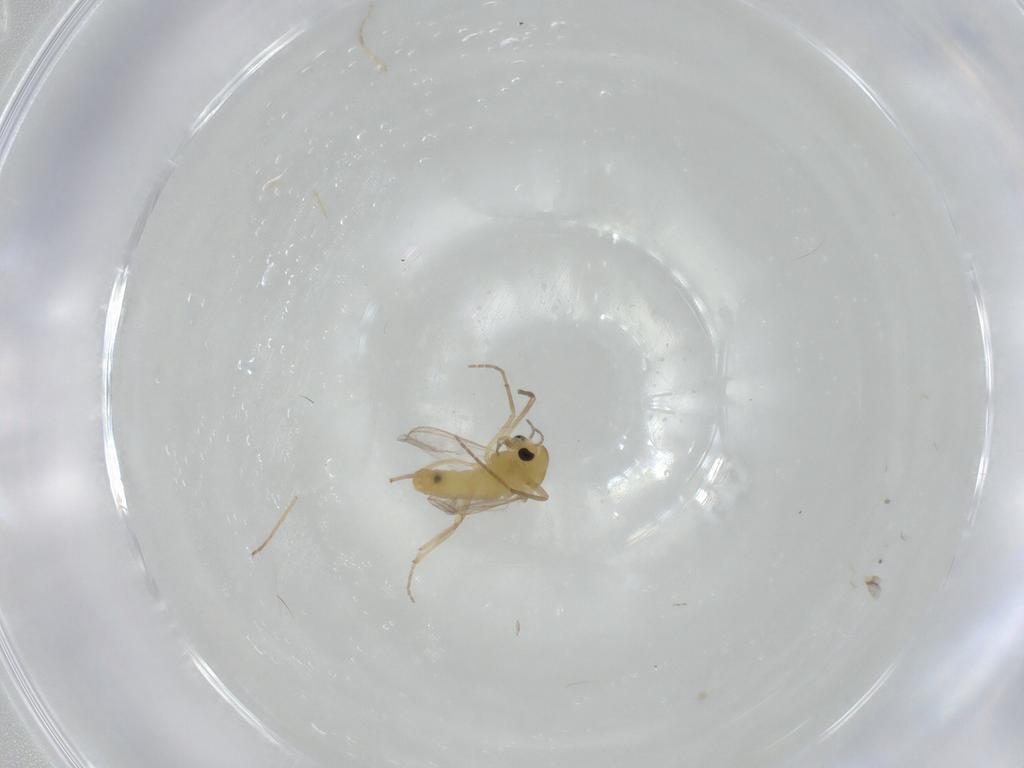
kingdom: Animalia
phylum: Arthropoda
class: Insecta
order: Diptera
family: Chironomidae
